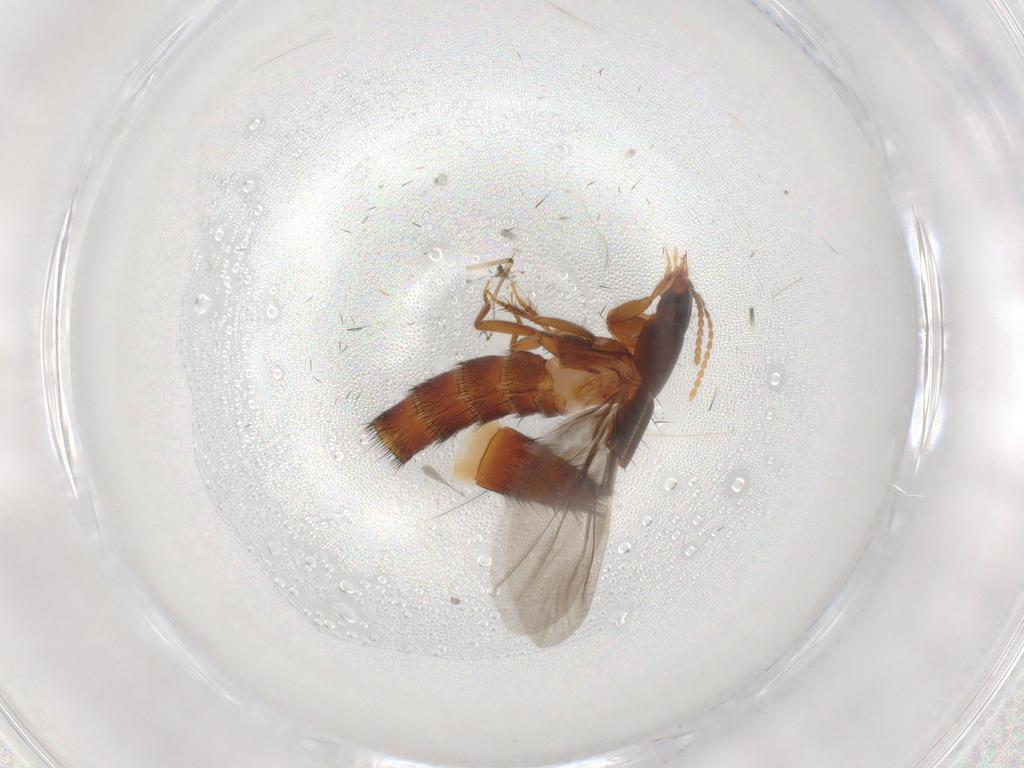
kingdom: Animalia
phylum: Arthropoda
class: Insecta
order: Coleoptera
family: Staphylinidae
